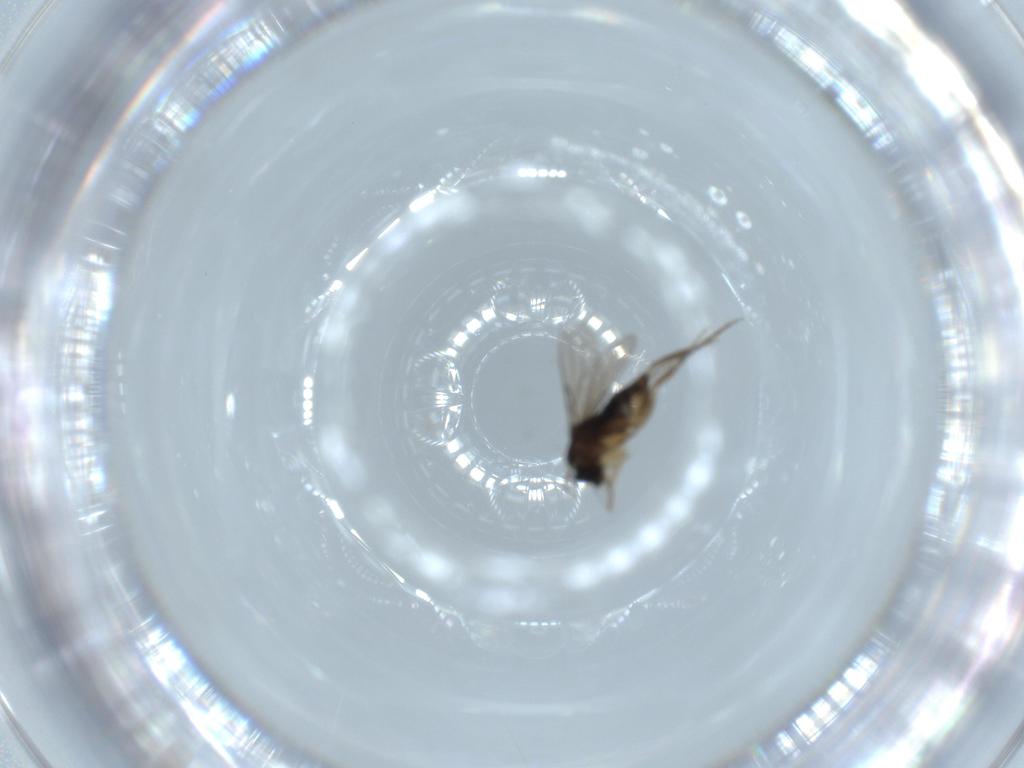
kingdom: Animalia
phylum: Arthropoda
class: Insecta
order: Diptera
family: Phoridae
